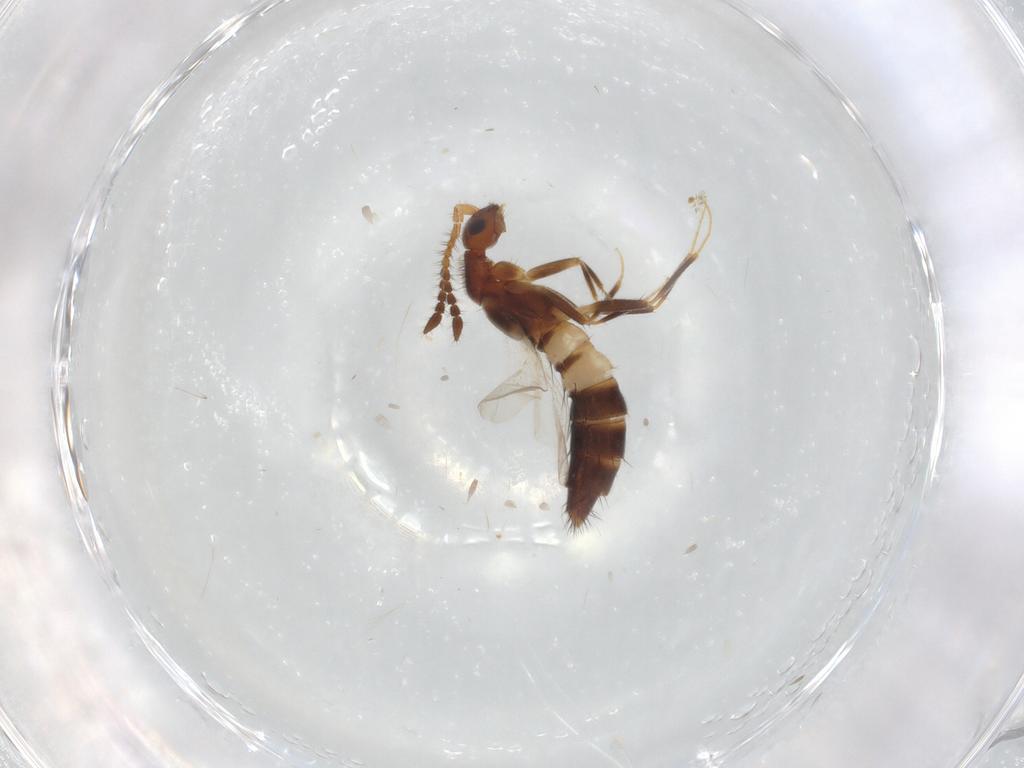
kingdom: Animalia
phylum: Arthropoda
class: Insecta
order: Coleoptera
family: Staphylinidae
